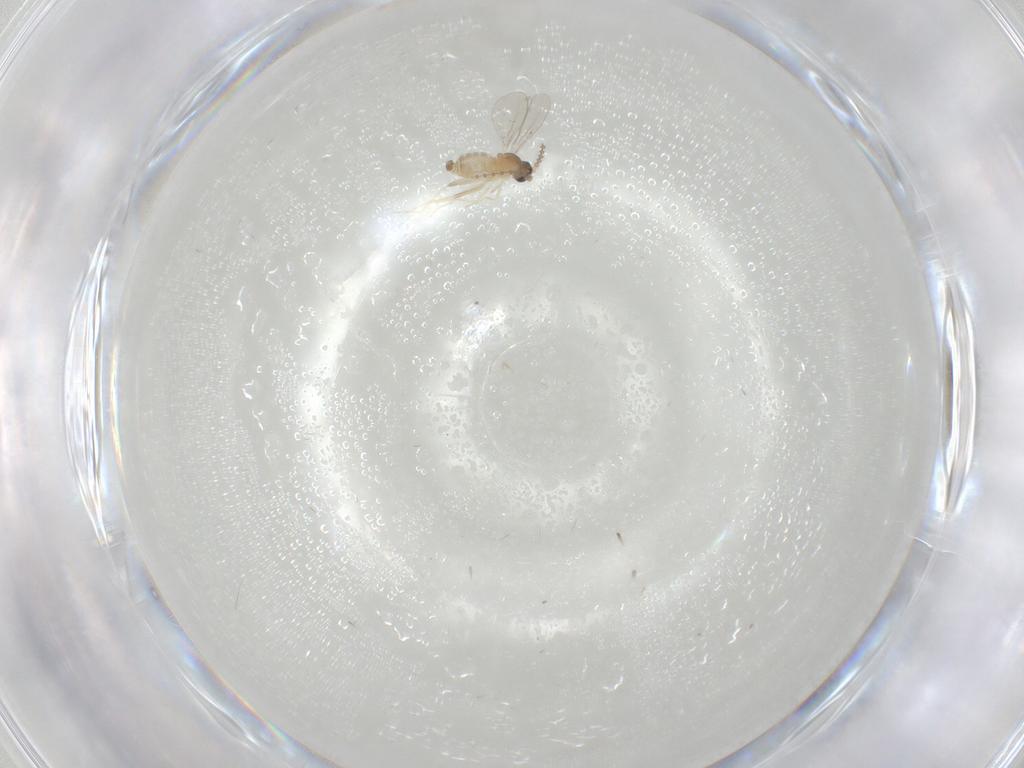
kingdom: Animalia
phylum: Arthropoda
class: Insecta
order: Diptera
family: Cecidomyiidae
